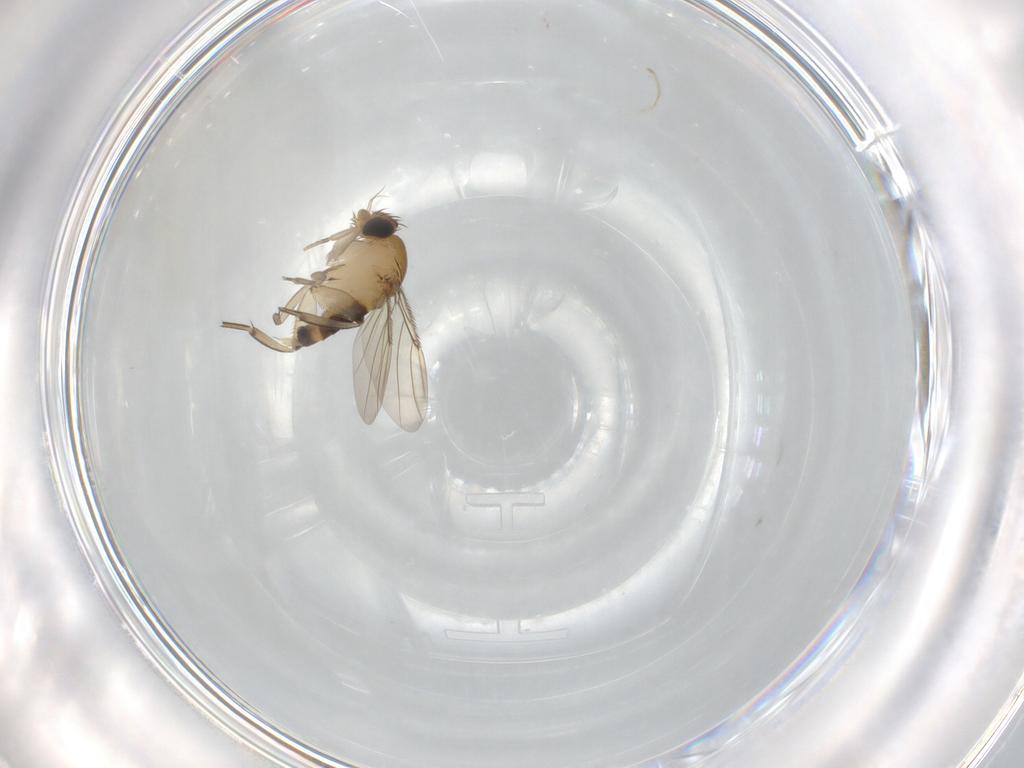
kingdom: Animalia
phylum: Arthropoda
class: Insecta
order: Diptera
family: Phoridae
